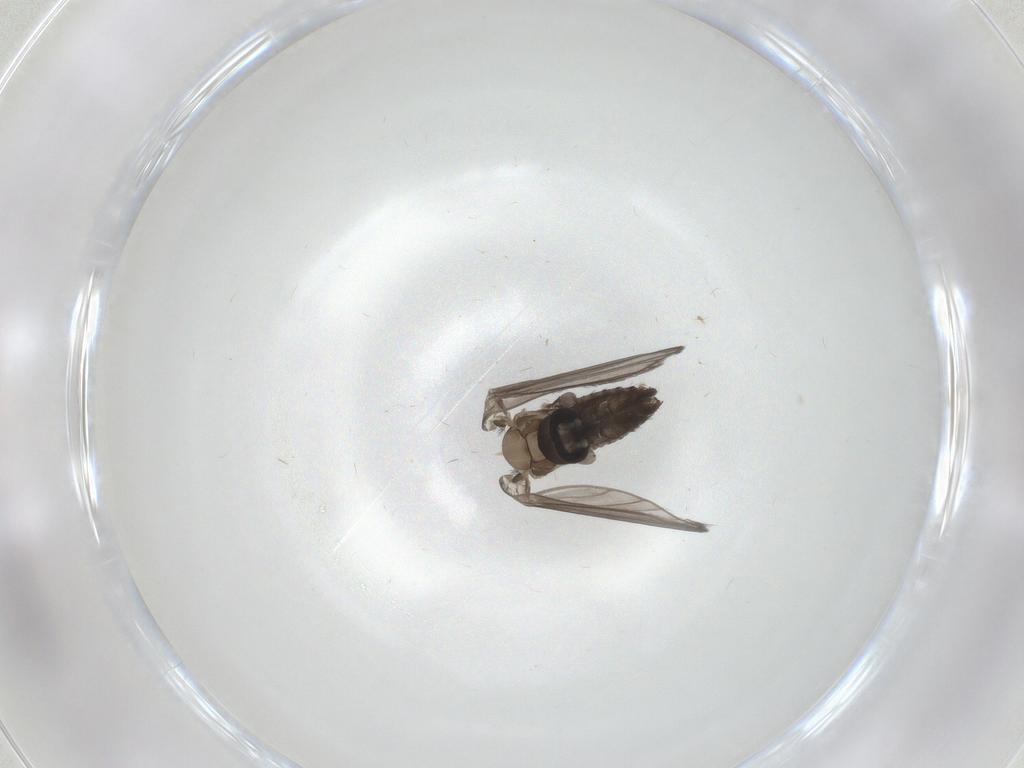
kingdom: Animalia
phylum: Arthropoda
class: Insecta
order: Diptera
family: Psychodidae
